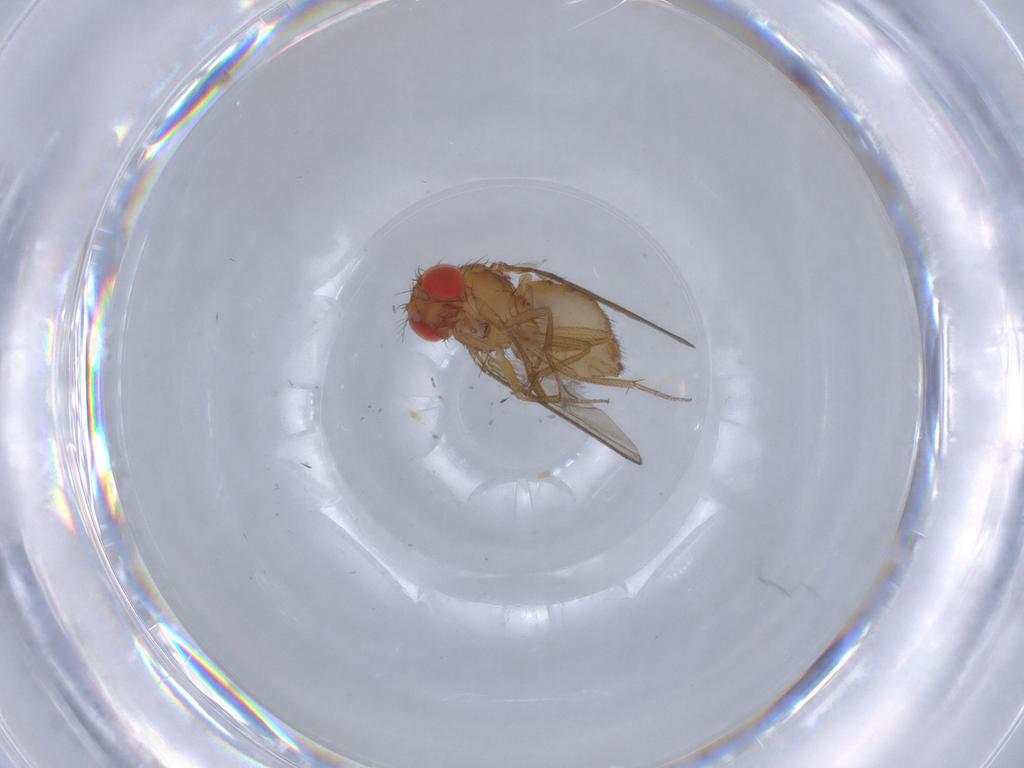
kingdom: Animalia
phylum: Arthropoda
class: Insecta
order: Diptera
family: Drosophilidae
